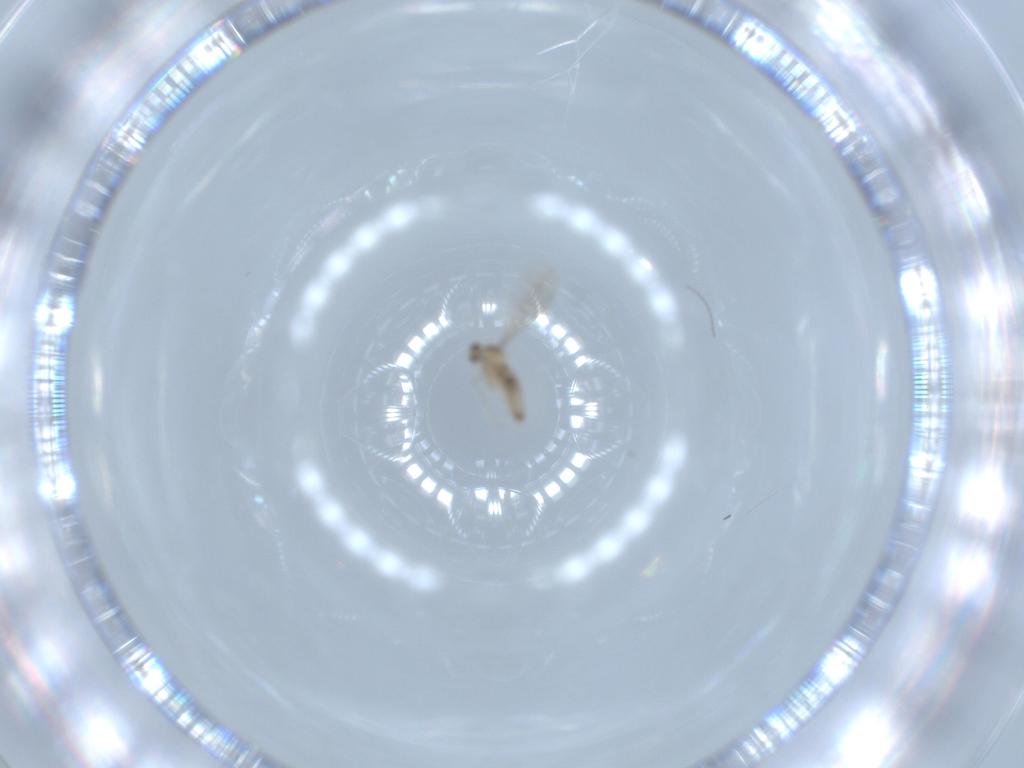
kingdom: Animalia
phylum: Arthropoda
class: Insecta
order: Diptera
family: Cecidomyiidae
